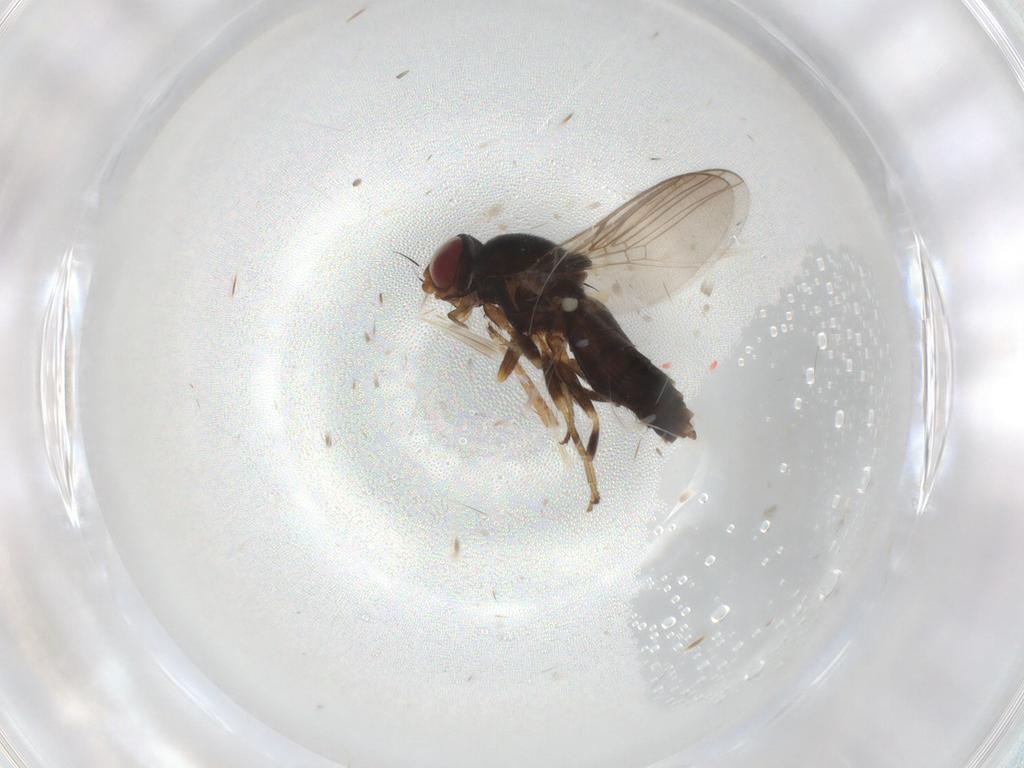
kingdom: Animalia
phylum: Arthropoda
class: Insecta
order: Diptera
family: Chloropidae
